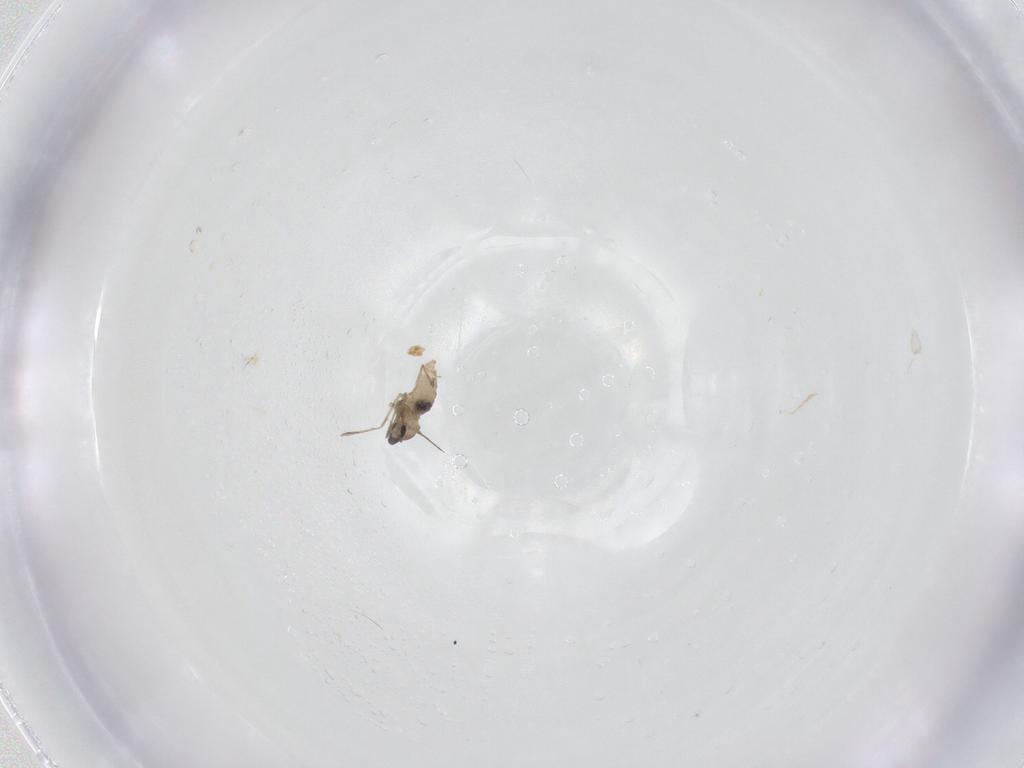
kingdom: Animalia
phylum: Arthropoda
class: Insecta
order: Diptera
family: Cecidomyiidae
